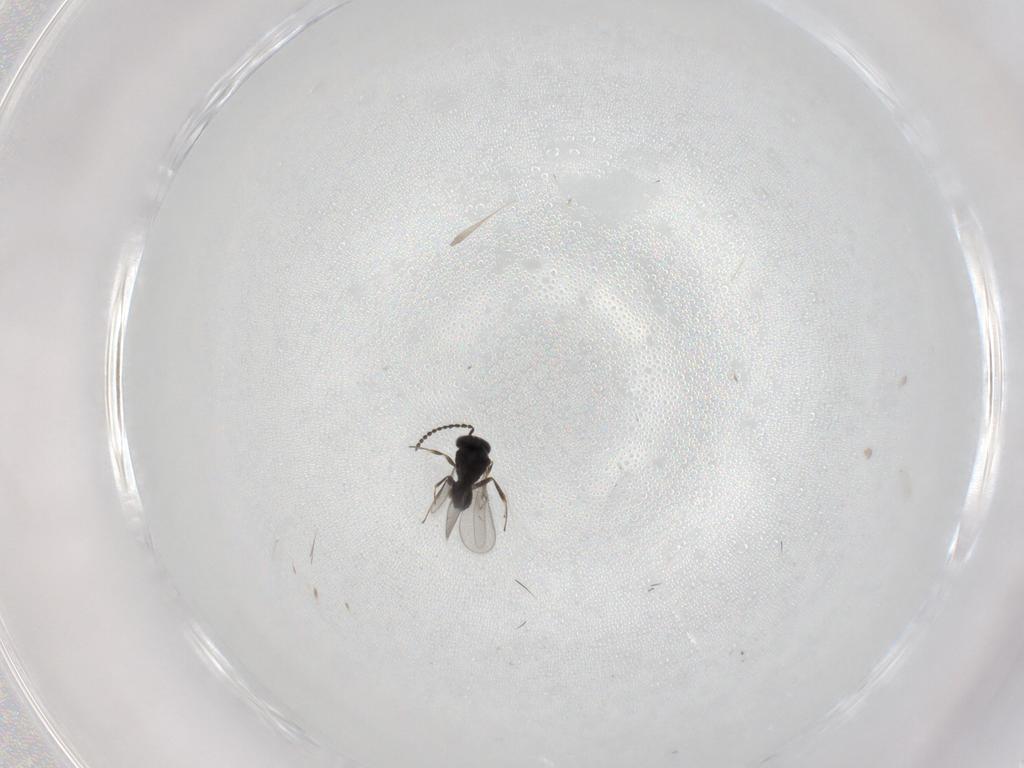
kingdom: Animalia
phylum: Arthropoda
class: Insecta
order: Hymenoptera
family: Scelionidae
